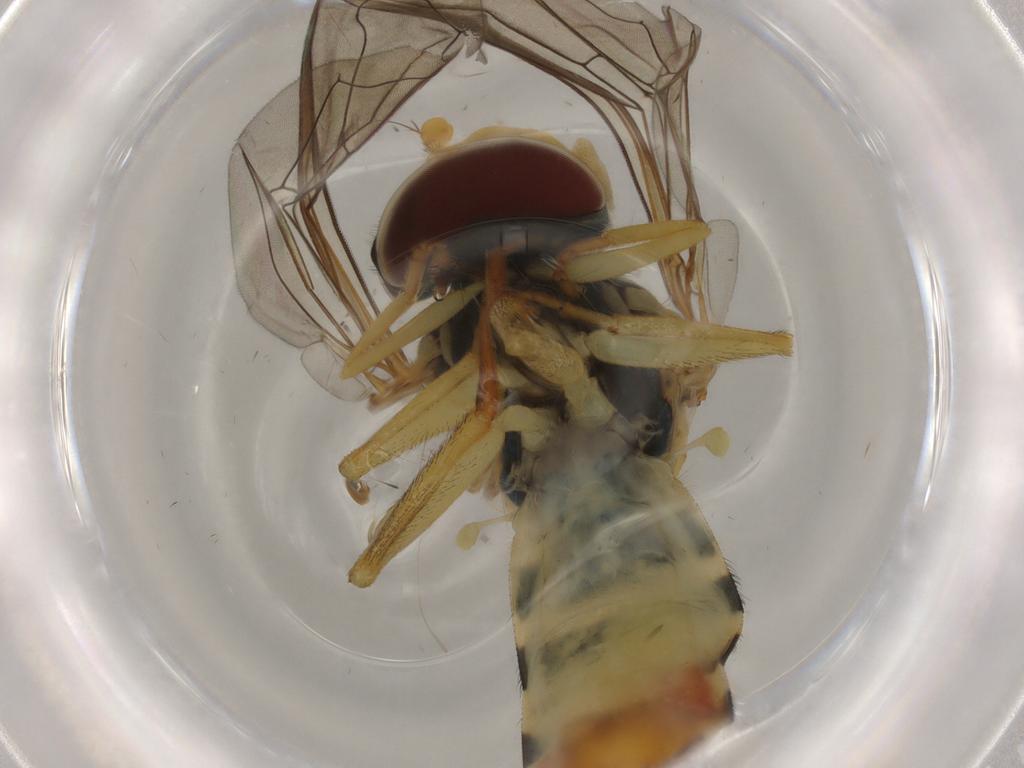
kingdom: Animalia
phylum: Arthropoda
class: Insecta
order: Diptera
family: Syrphidae
